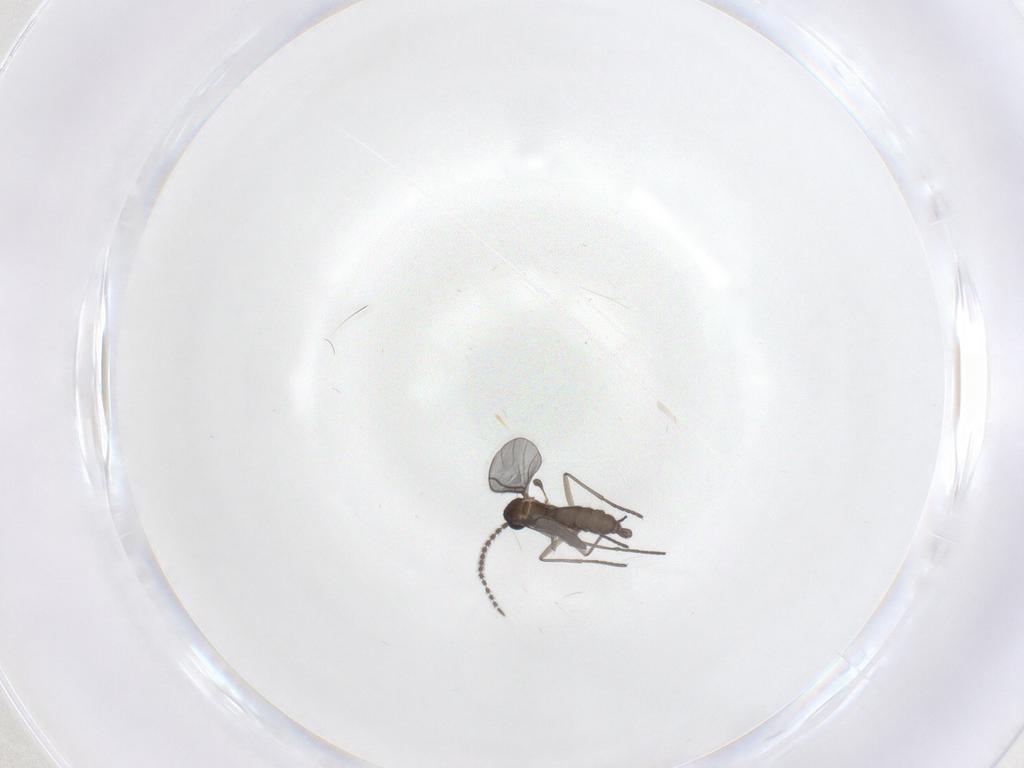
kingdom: Animalia
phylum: Arthropoda
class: Insecta
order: Diptera
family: Chironomidae
